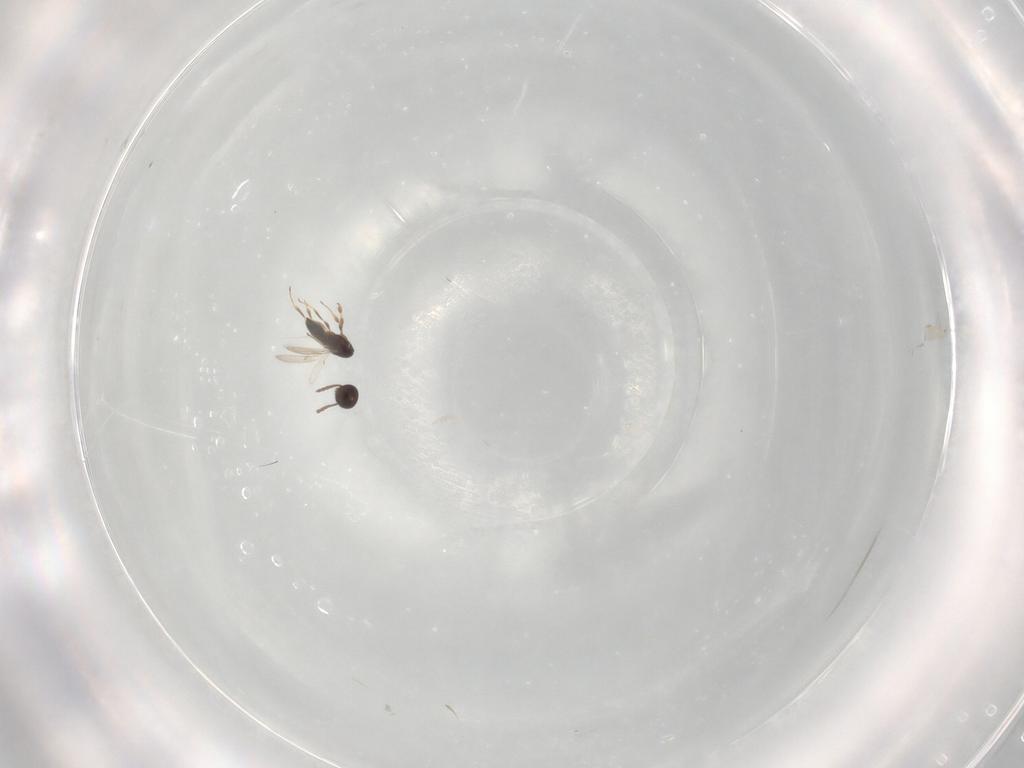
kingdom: Animalia
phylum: Arthropoda
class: Insecta
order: Hymenoptera
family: Scelionidae
